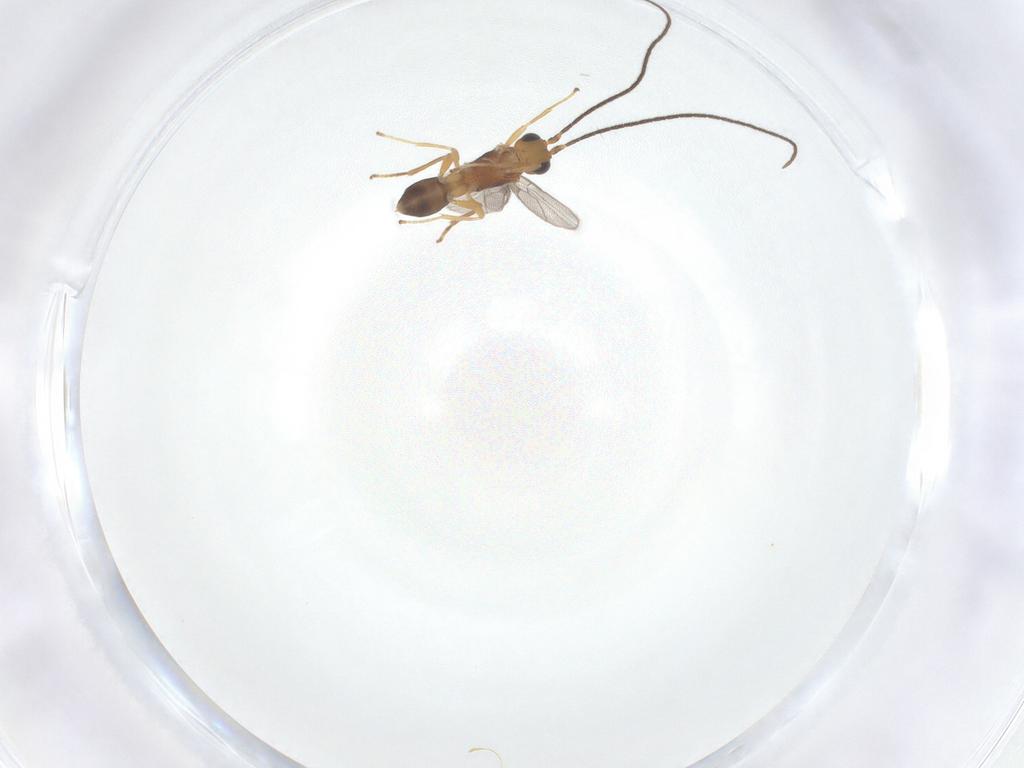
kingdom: Animalia
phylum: Arthropoda
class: Insecta
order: Hymenoptera
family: Braconidae
